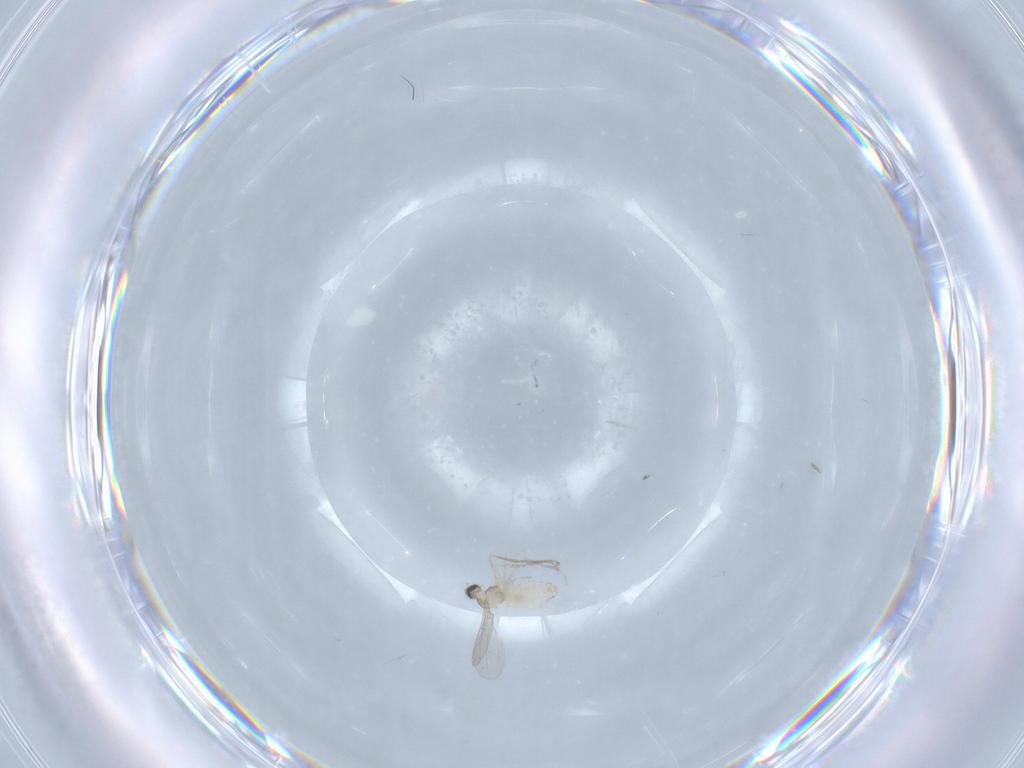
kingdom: Animalia
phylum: Arthropoda
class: Insecta
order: Diptera
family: Cecidomyiidae
